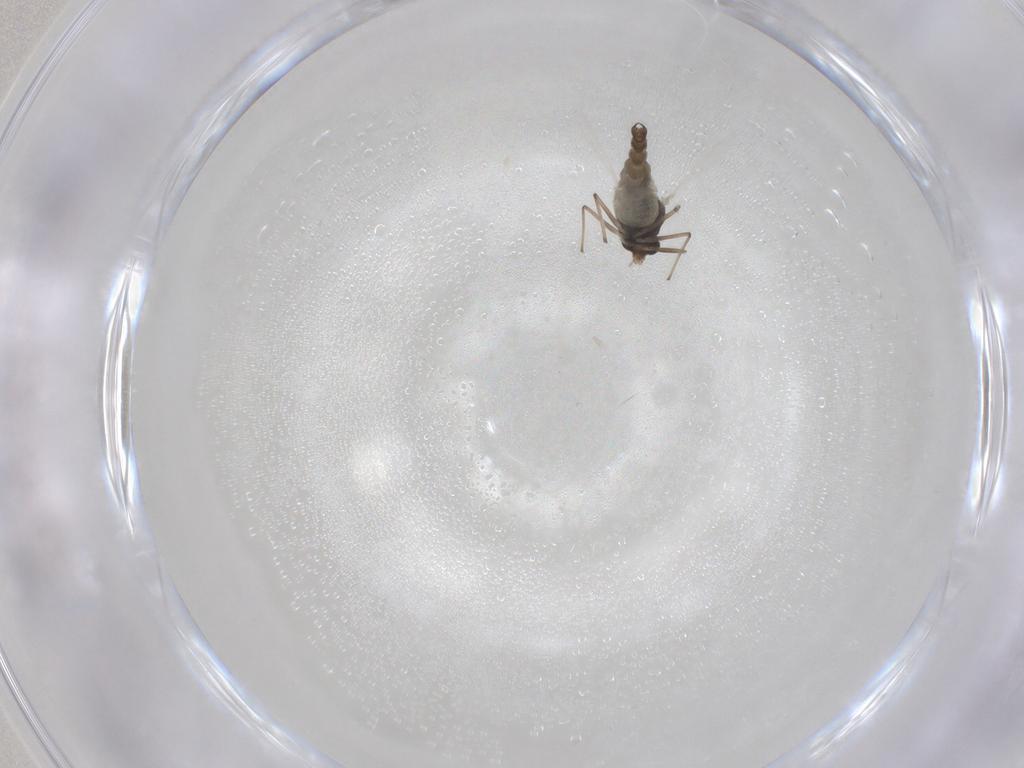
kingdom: Animalia
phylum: Arthropoda
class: Insecta
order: Diptera
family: Chironomidae
